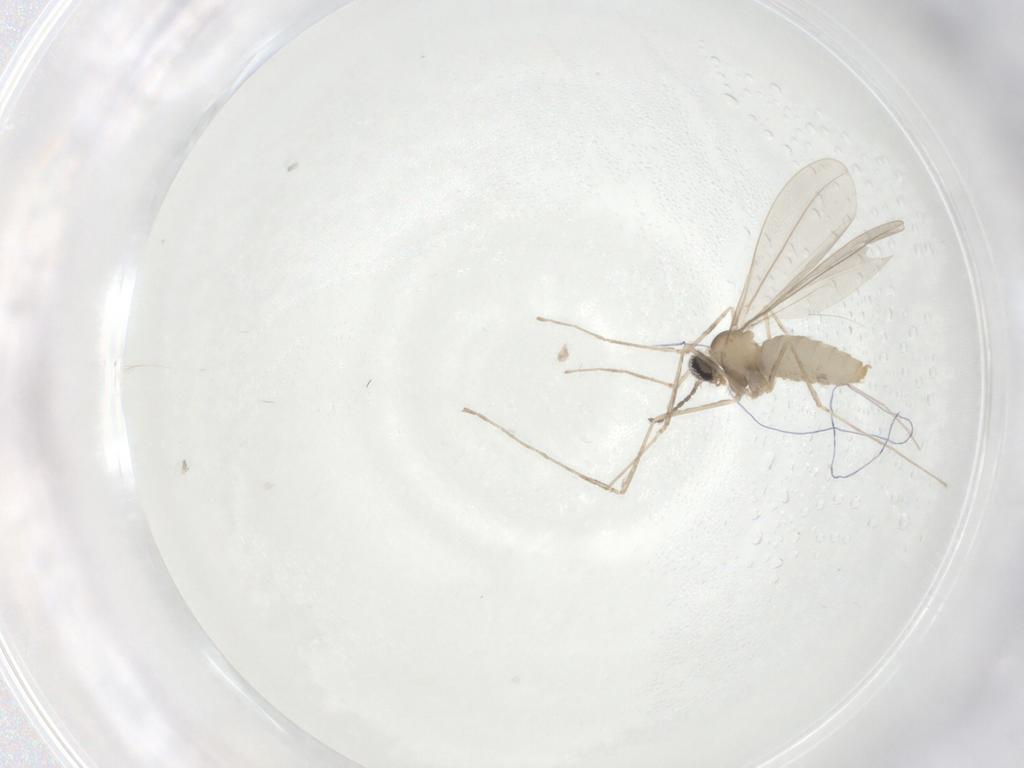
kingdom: Animalia
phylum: Arthropoda
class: Insecta
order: Diptera
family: Cecidomyiidae
